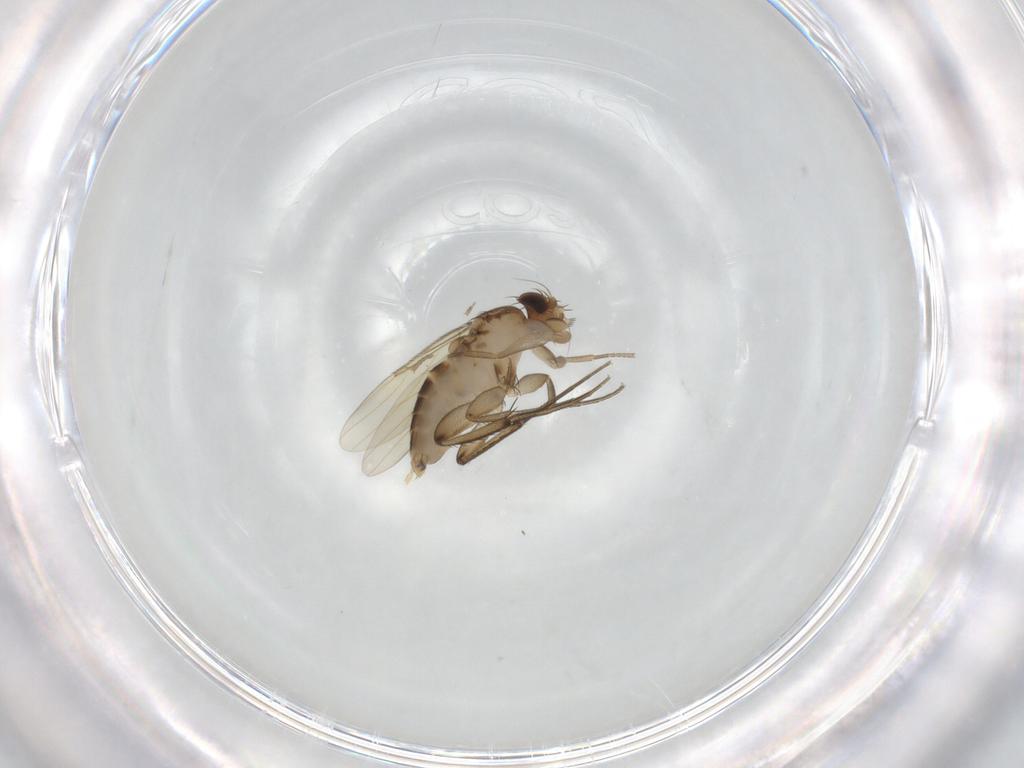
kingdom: Animalia
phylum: Arthropoda
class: Insecta
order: Diptera
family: Phoridae
